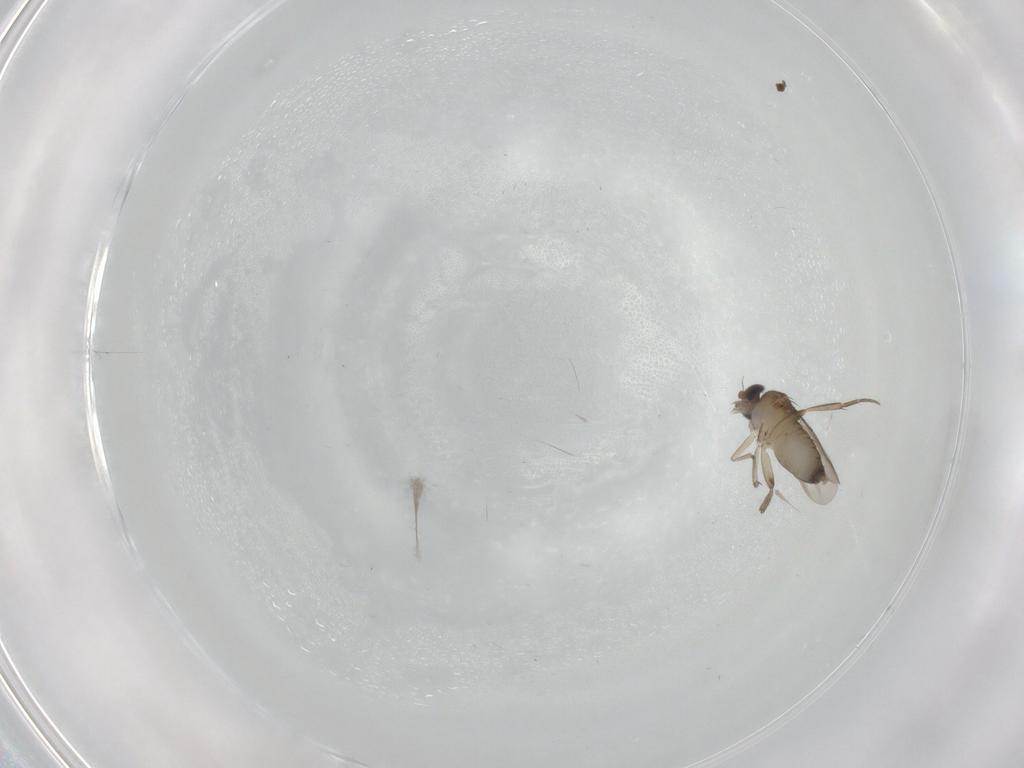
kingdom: Animalia
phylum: Arthropoda
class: Insecta
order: Diptera
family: Phoridae
